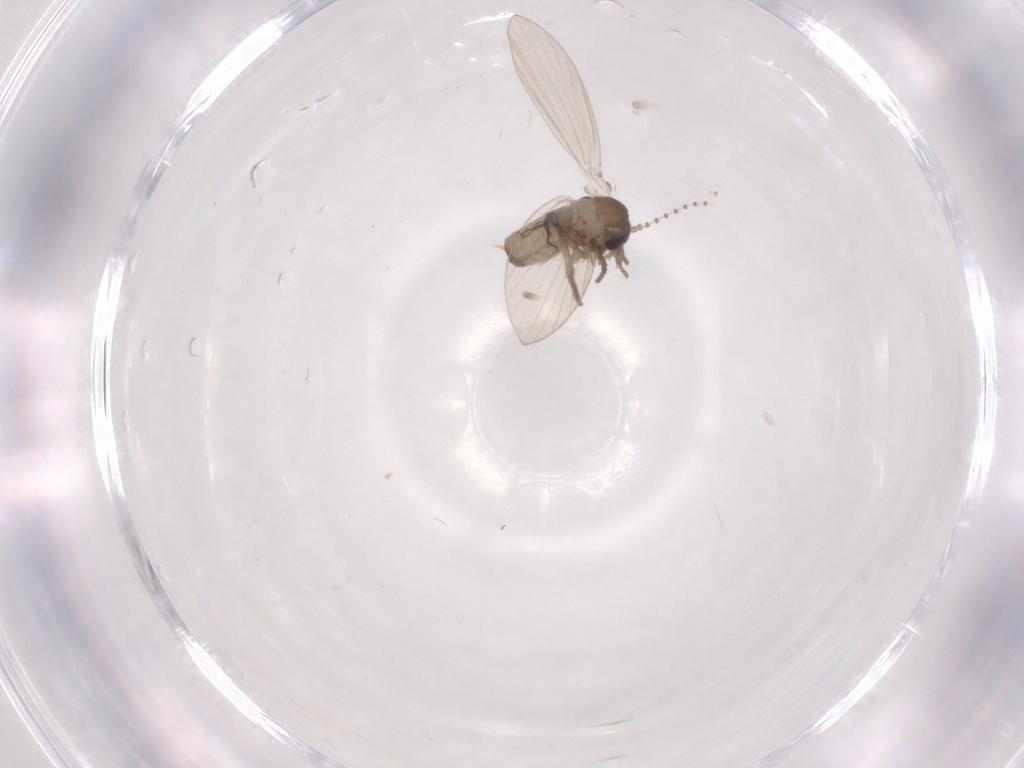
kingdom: Animalia
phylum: Arthropoda
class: Insecta
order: Diptera
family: Psychodidae
